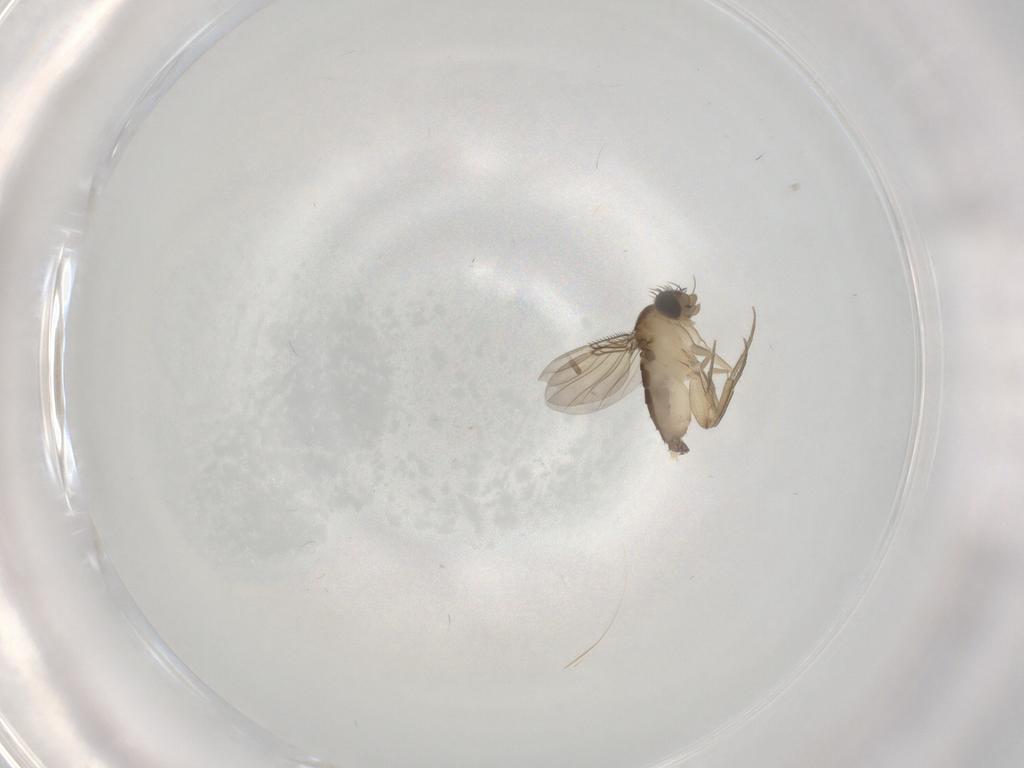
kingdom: Animalia
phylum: Arthropoda
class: Insecta
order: Diptera
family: Phoridae
